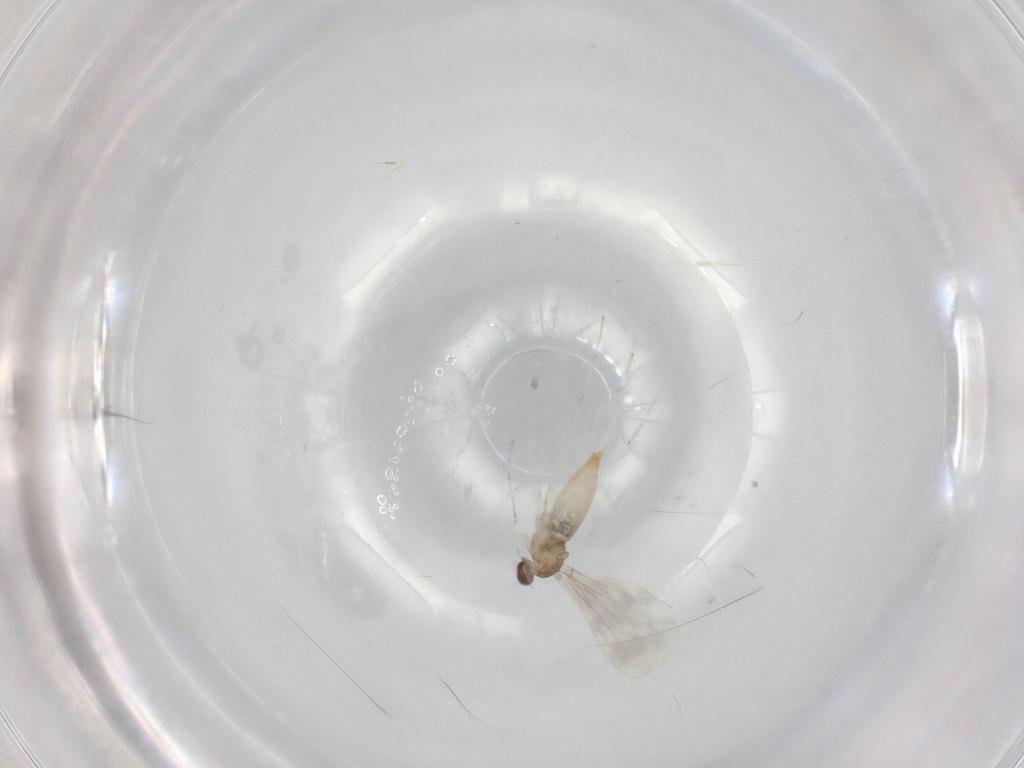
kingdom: Animalia
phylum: Arthropoda
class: Insecta
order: Diptera
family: Cecidomyiidae
